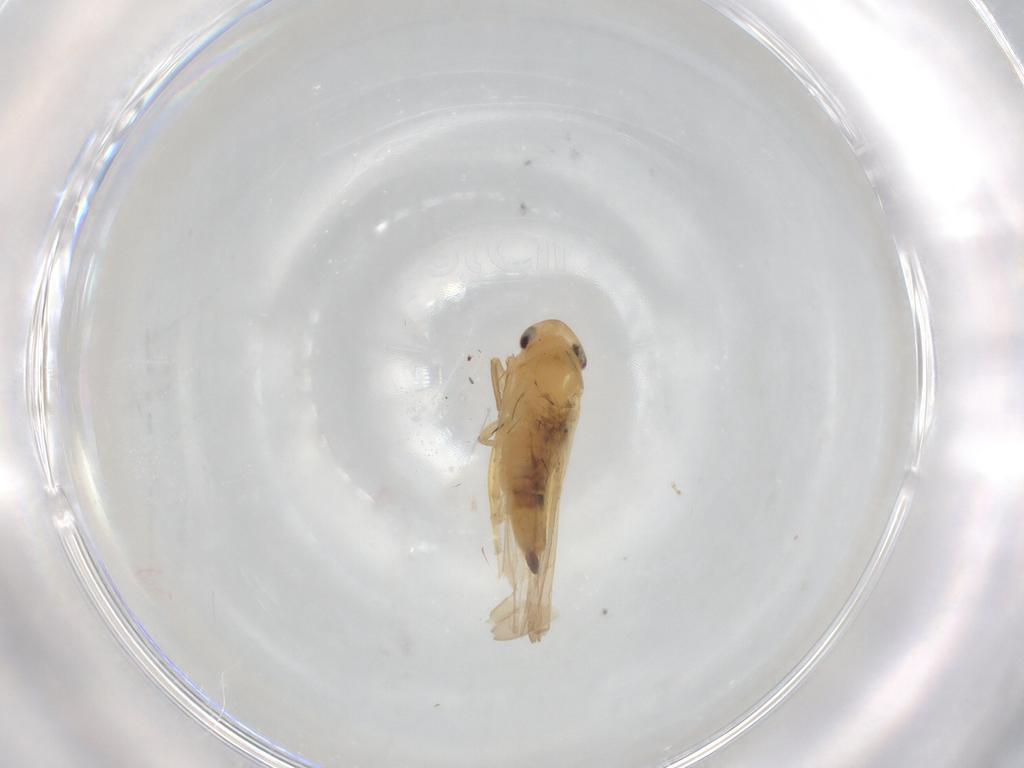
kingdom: Animalia
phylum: Arthropoda
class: Insecta
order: Hemiptera
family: Cicadellidae
